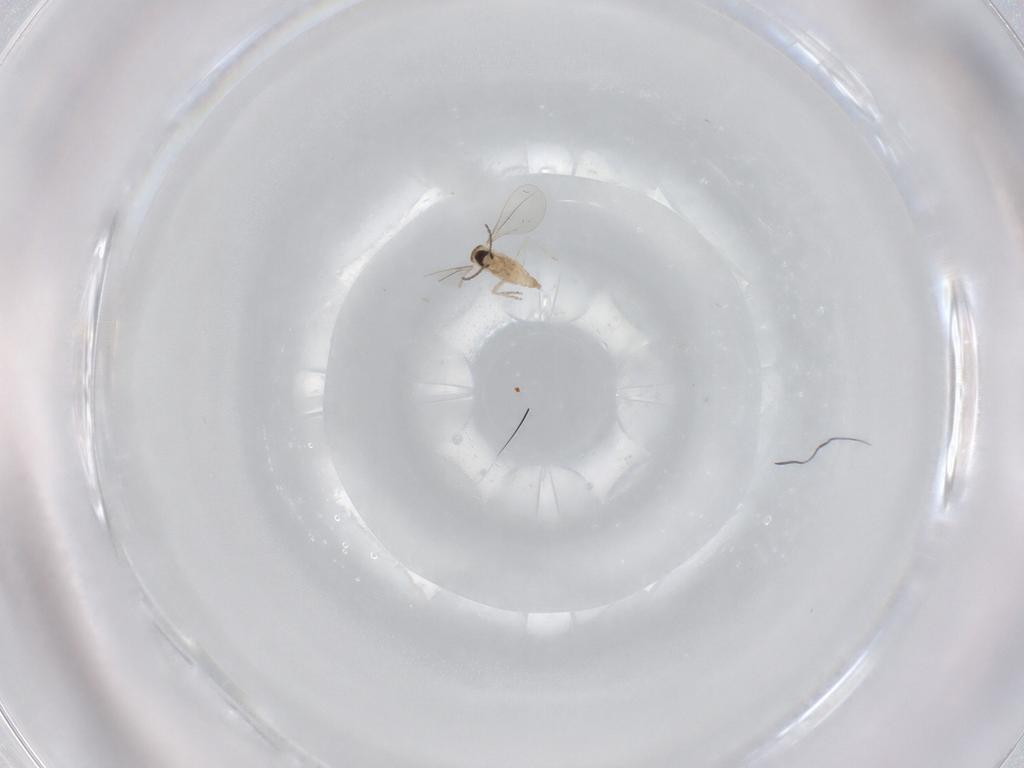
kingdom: Animalia
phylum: Arthropoda
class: Insecta
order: Diptera
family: Cecidomyiidae
